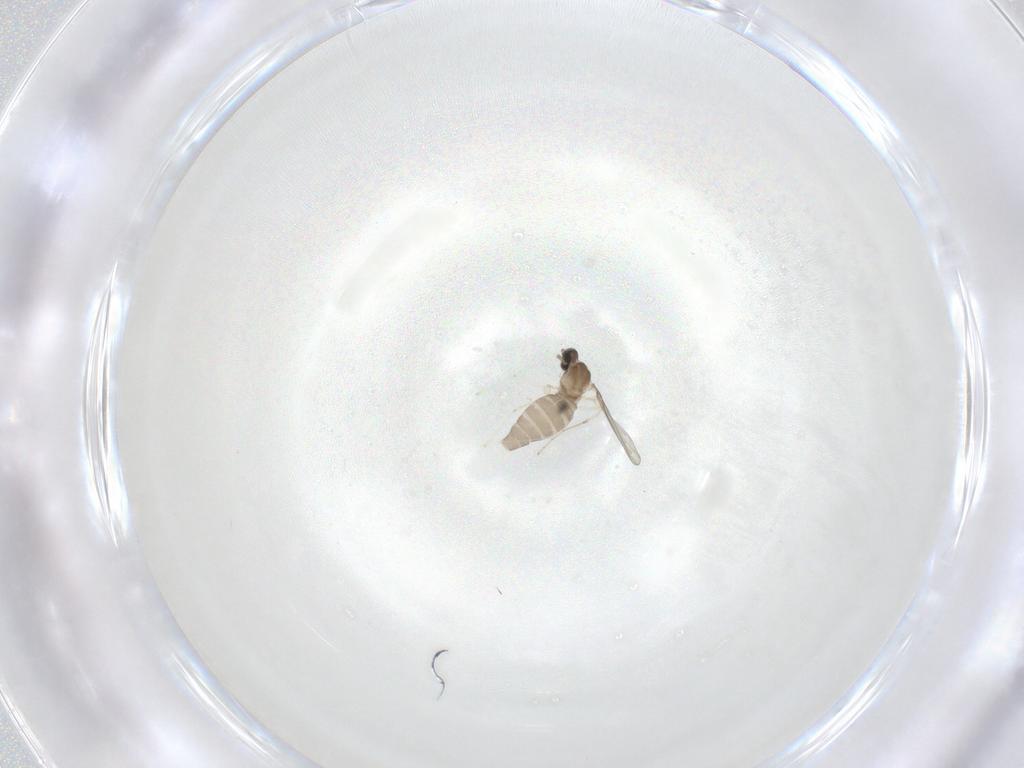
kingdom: Animalia
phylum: Arthropoda
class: Insecta
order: Diptera
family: Cecidomyiidae
